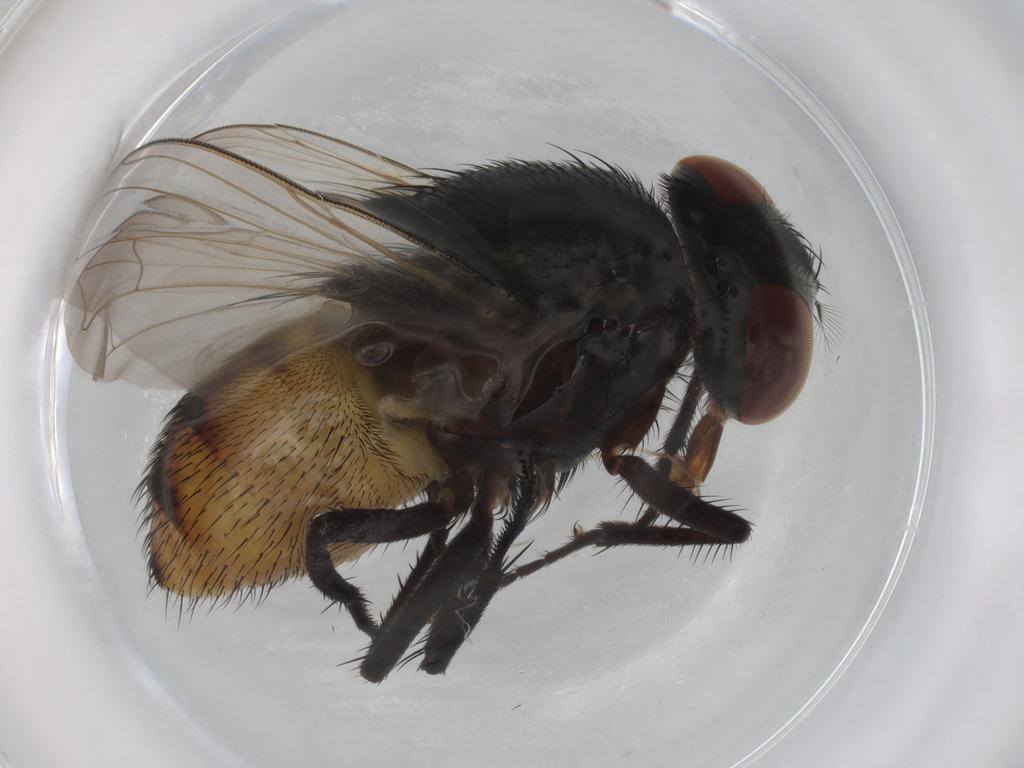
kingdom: Animalia
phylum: Arthropoda
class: Insecta
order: Diptera
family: Muscidae
